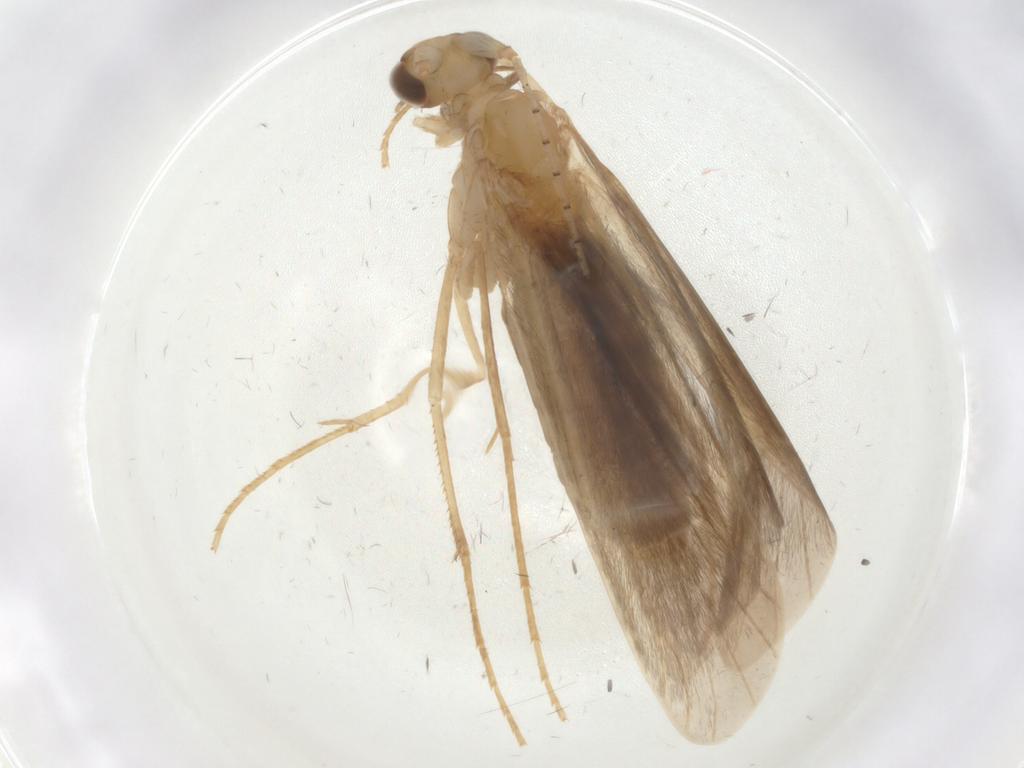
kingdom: Animalia
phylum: Arthropoda
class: Insecta
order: Trichoptera
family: Leptoceridae
